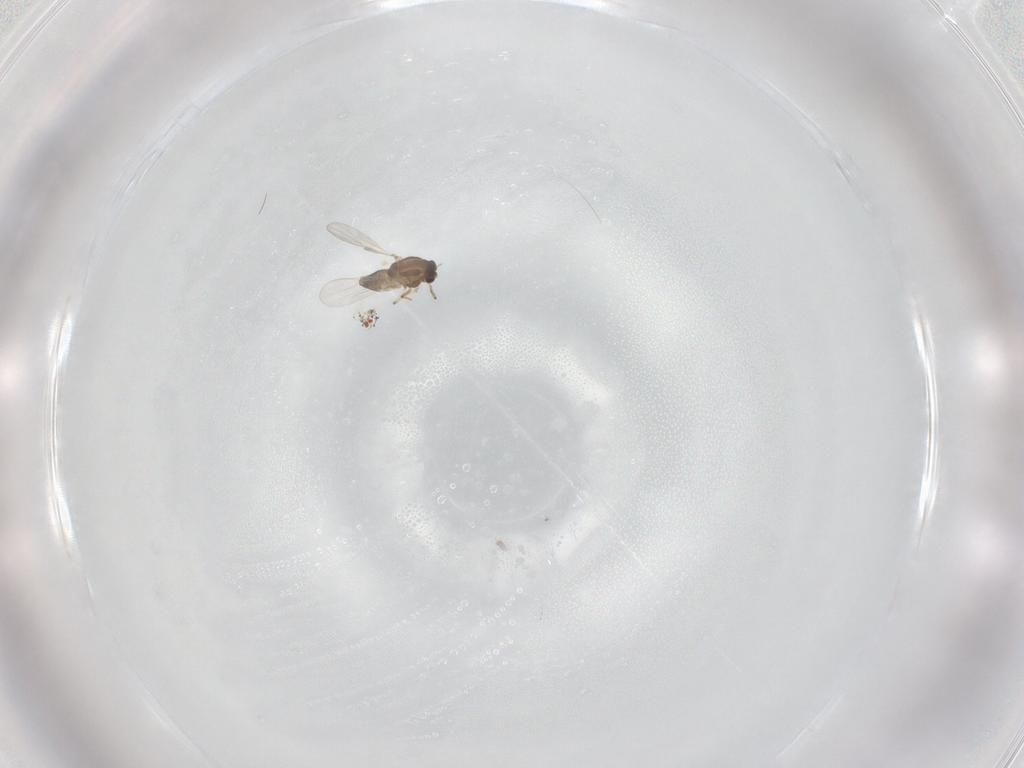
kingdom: Animalia
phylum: Arthropoda
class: Insecta
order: Diptera
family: Chironomidae
